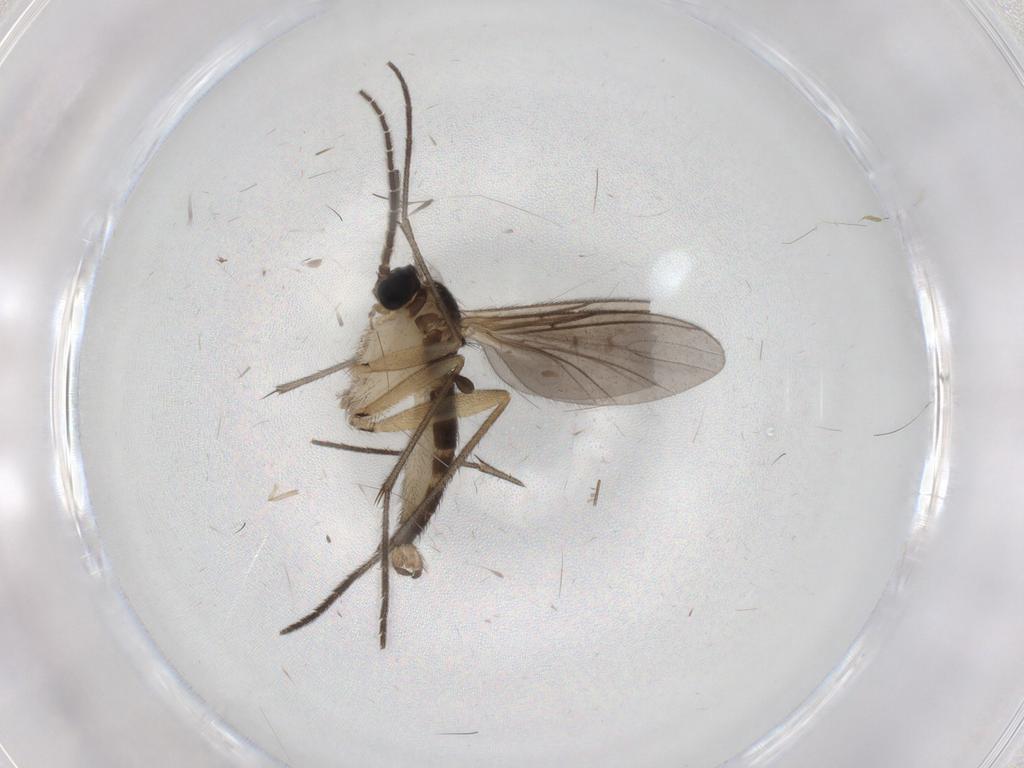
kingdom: Animalia
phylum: Arthropoda
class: Insecta
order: Diptera
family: Sciaridae
